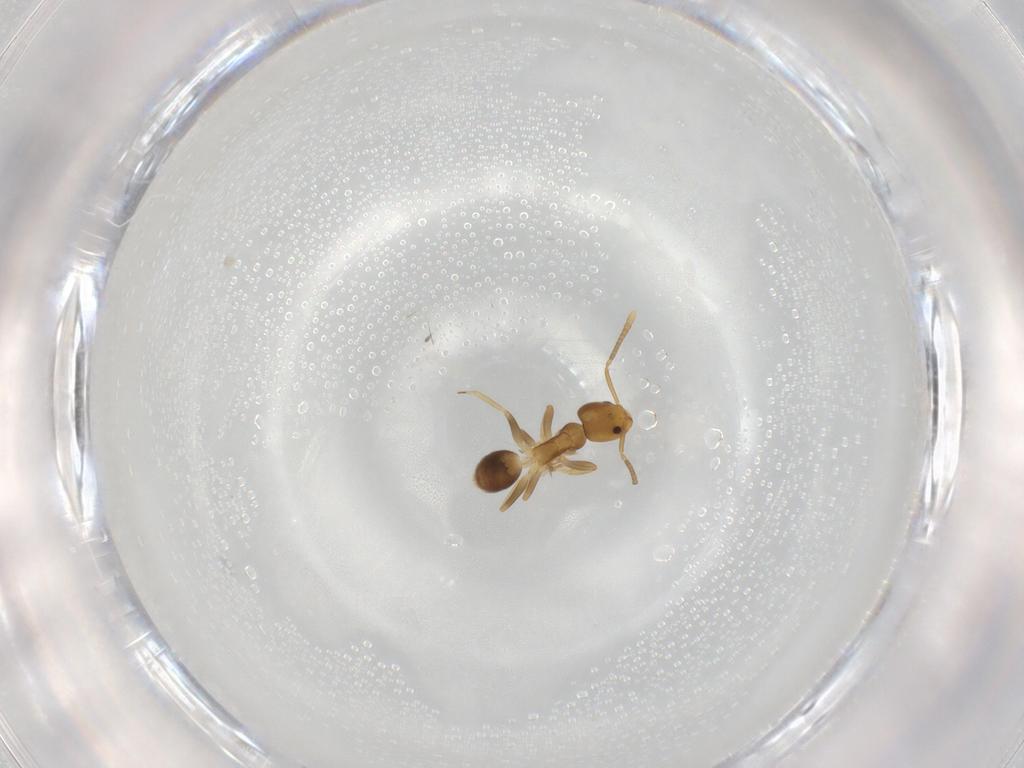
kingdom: Animalia
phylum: Arthropoda
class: Insecta
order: Hymenoptera
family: Formicidae
